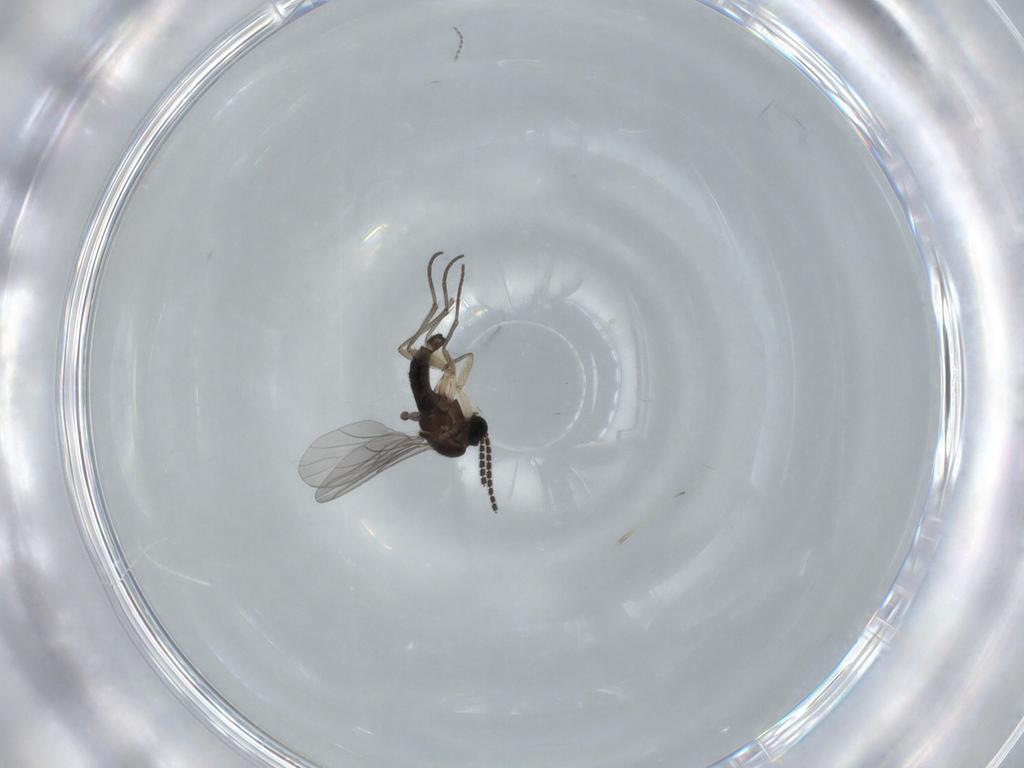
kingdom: Animalia
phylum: Arthropoda
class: Insecta
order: Diptera
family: Sciaridae
